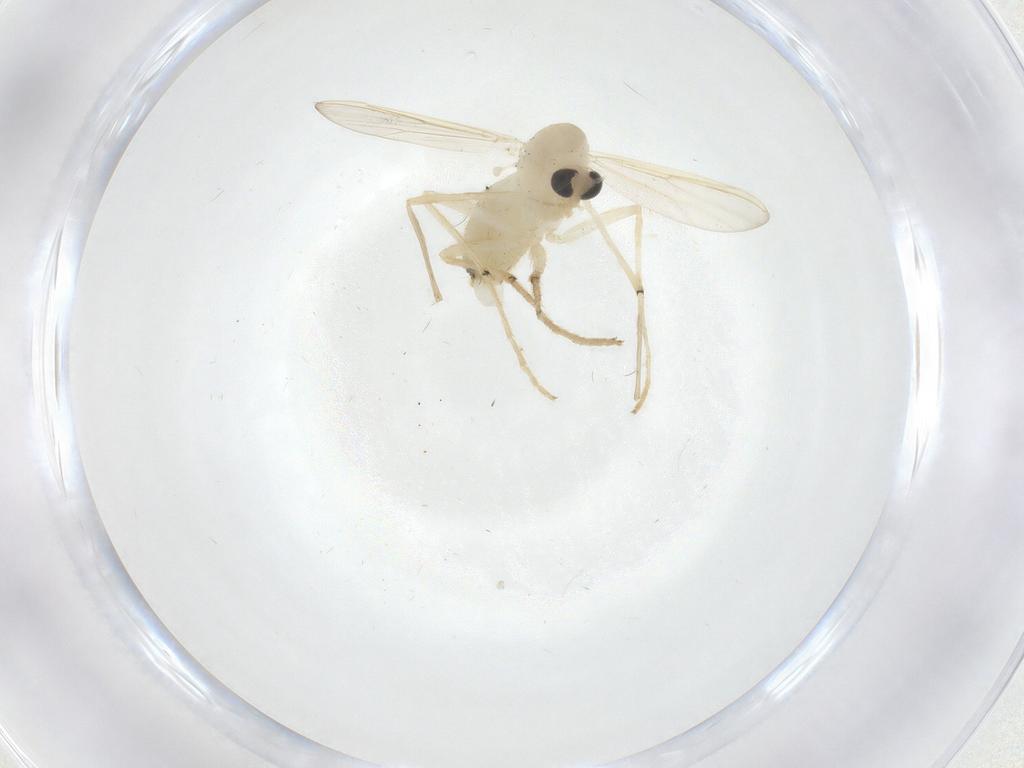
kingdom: Animalia
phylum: Arthropoda
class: Insecta
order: Diptera
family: Chironomidae
